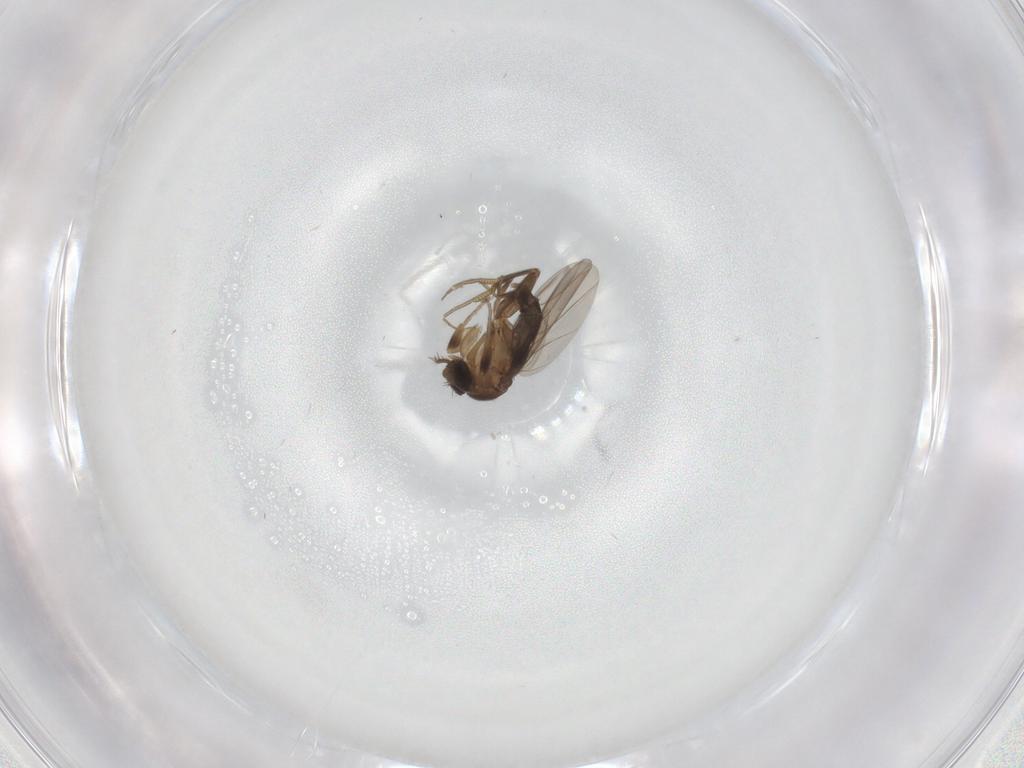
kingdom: Animalia
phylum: Arthropoda
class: Insecta
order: Diptera
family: Phoridae
